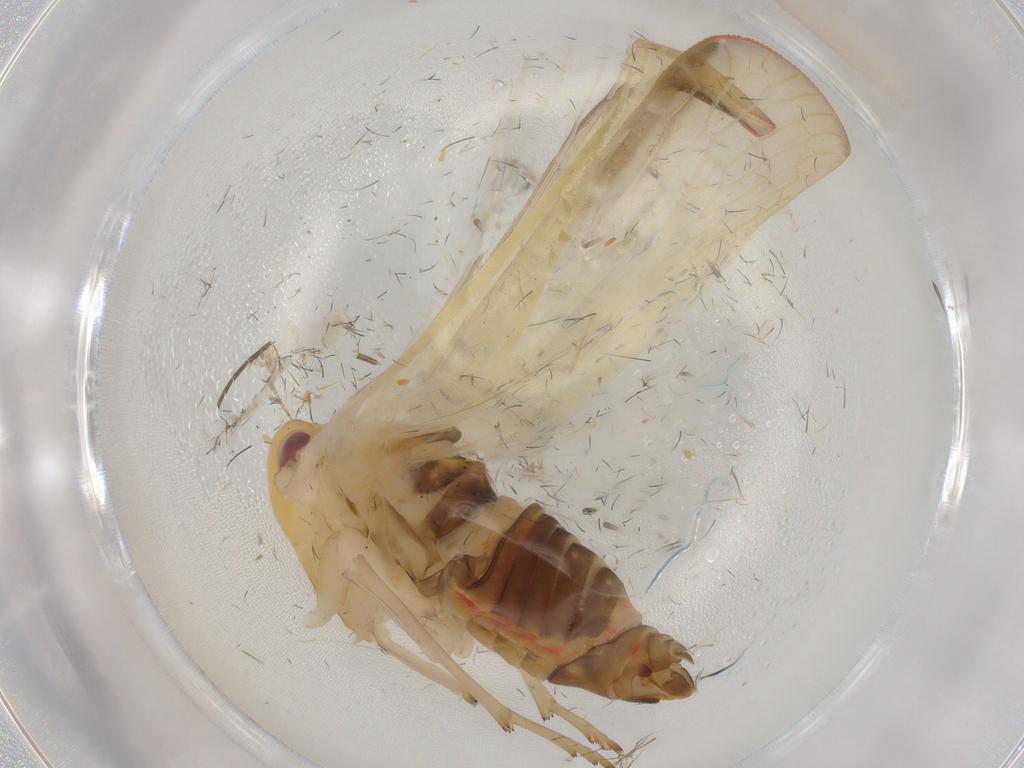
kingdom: Animalia
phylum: Arthropoda
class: Insecta
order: Hemiptera
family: Derbidae
